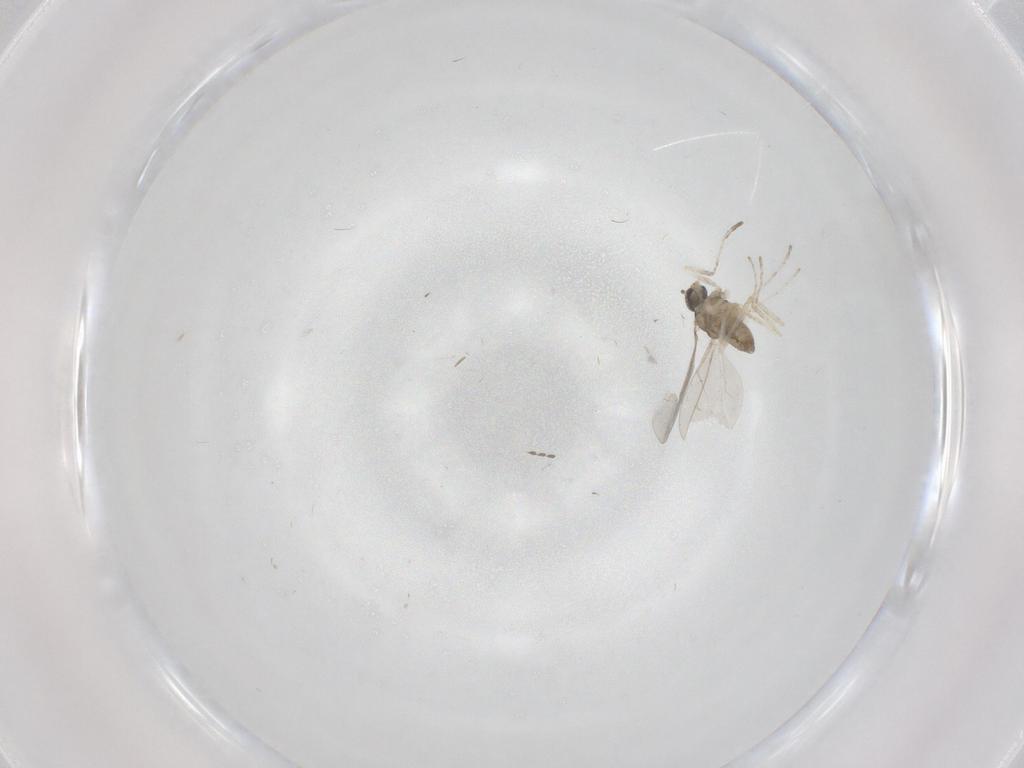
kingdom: Animalia
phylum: Arthropoda
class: Insecta
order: Diptera
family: Cecidomyiidae
